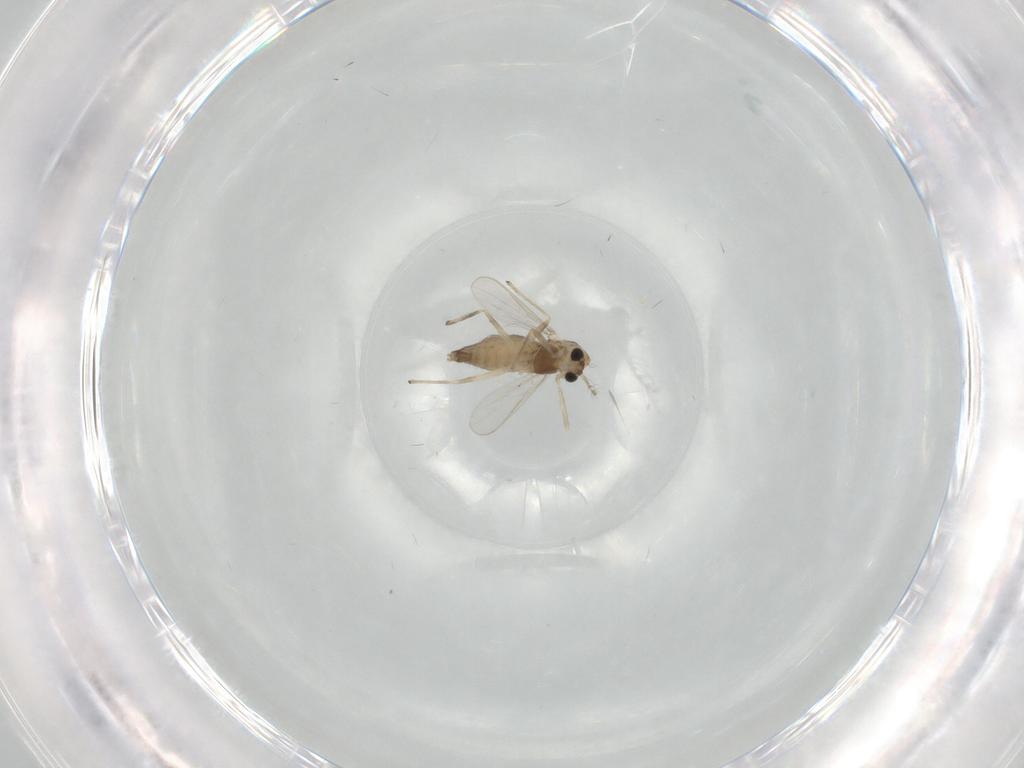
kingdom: Animalia
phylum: Arthropoda
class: Insecta
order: Diptera
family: Chironomidae
